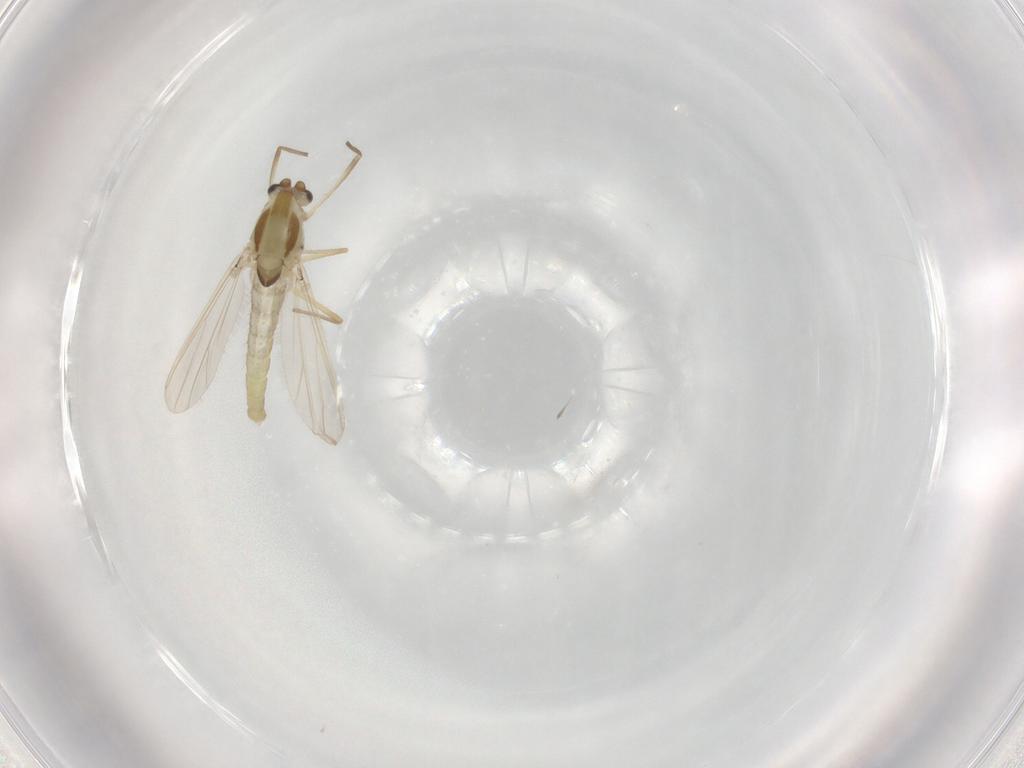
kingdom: Animalia
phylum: Arthropoda
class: Insecta
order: Diptera
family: Chironomidae
